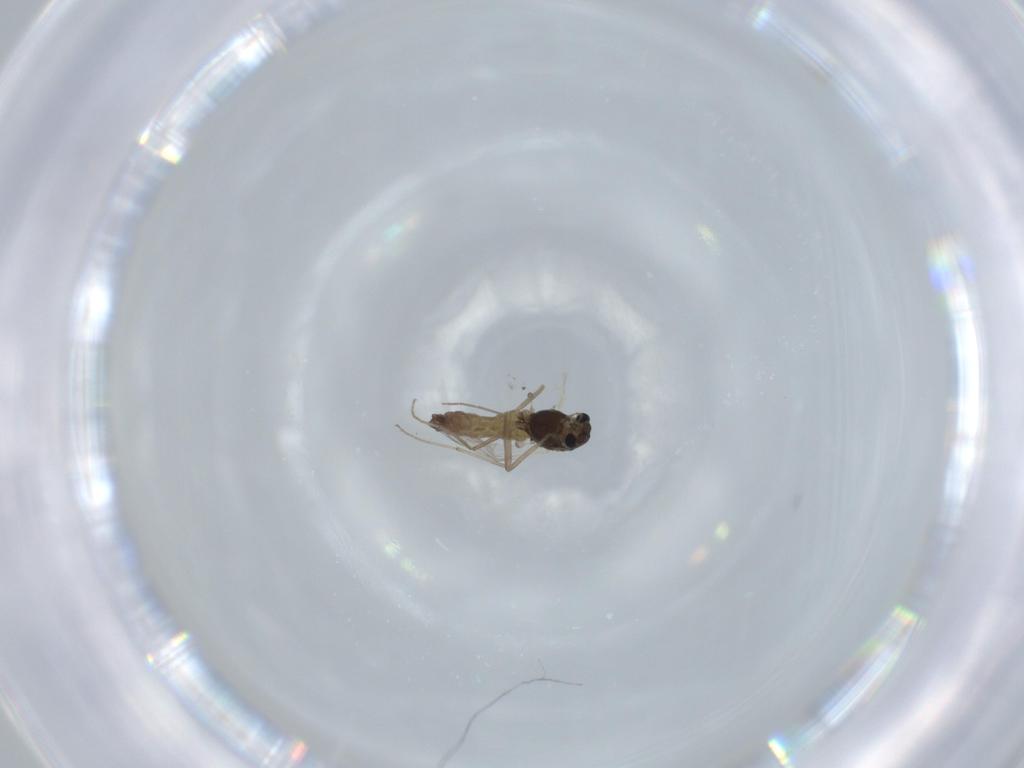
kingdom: Animalia
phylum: Arthropoda
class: Insecta
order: Diptera
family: Chironomidae
